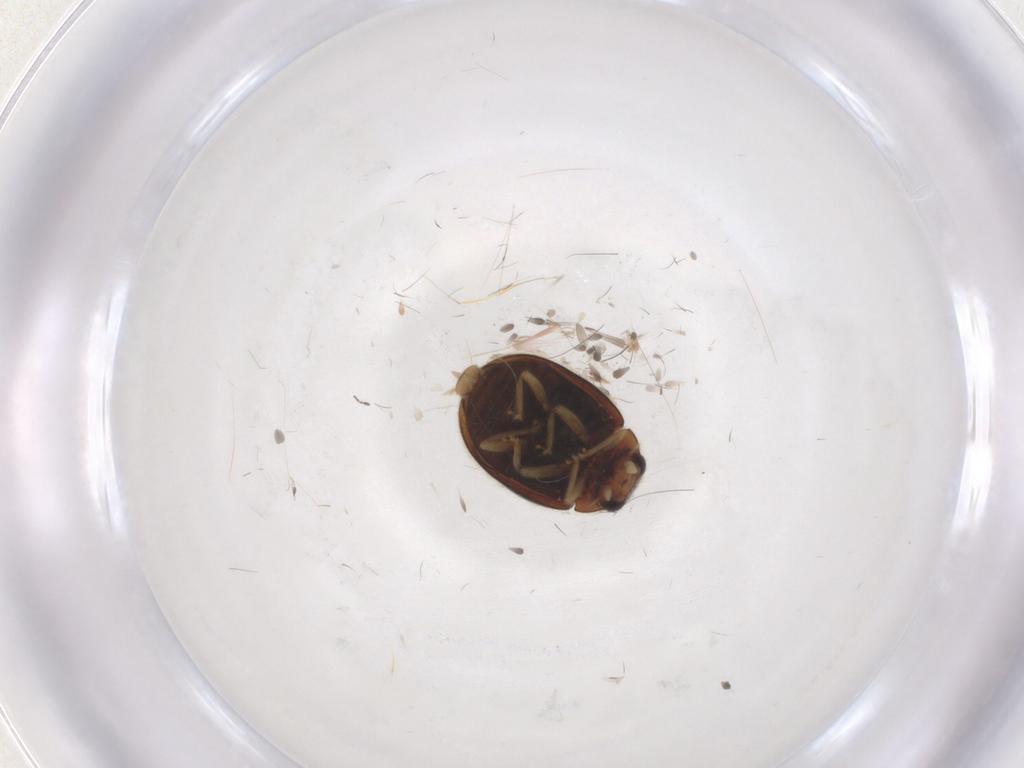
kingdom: Animalia
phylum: Arthropoda
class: Insecta
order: Coleoptera
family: Coccinellidae
